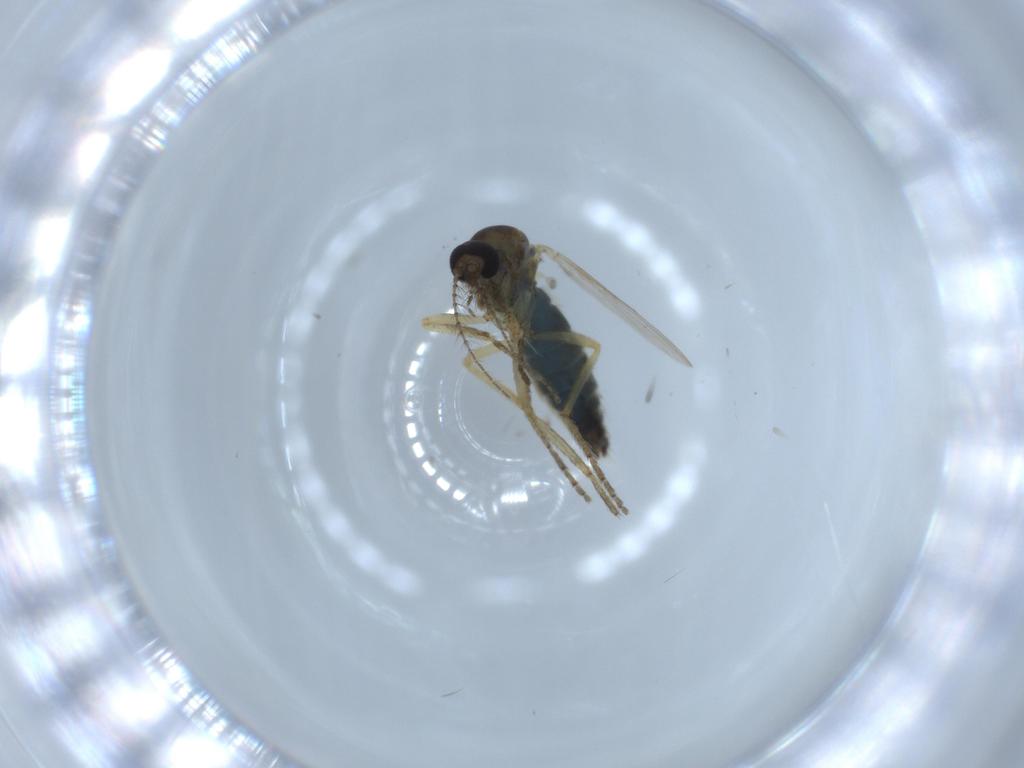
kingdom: Animalia
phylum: Arthropoda
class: Insecta
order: Diptera
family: Ceratopogonidae
